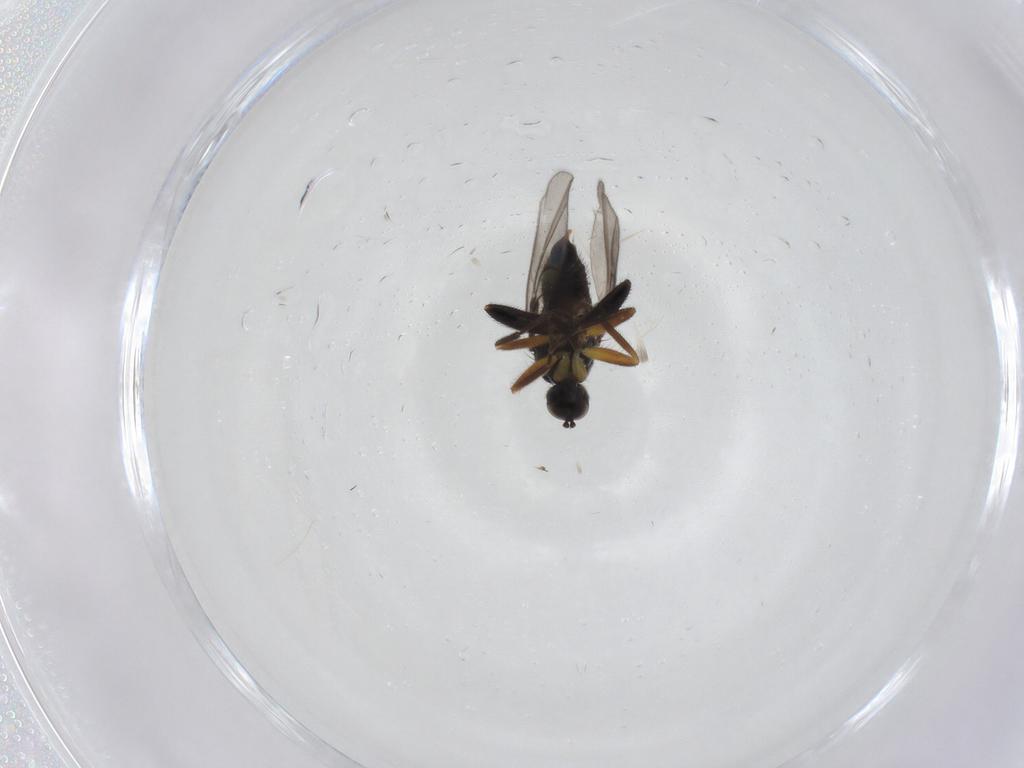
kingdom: Animalia
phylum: Arthropoda
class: Insecta
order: Diptera
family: Hybotidae
